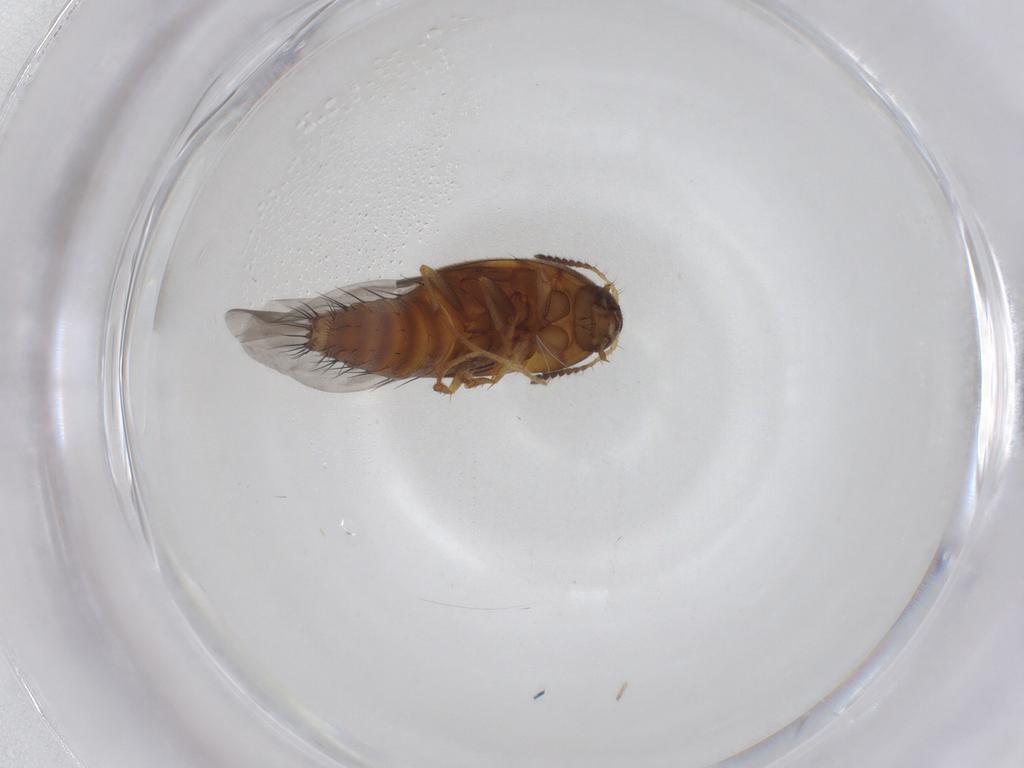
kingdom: Animalia
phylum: Arthropoda
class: Insecta
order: Coleoptera
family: Staphylinidae
